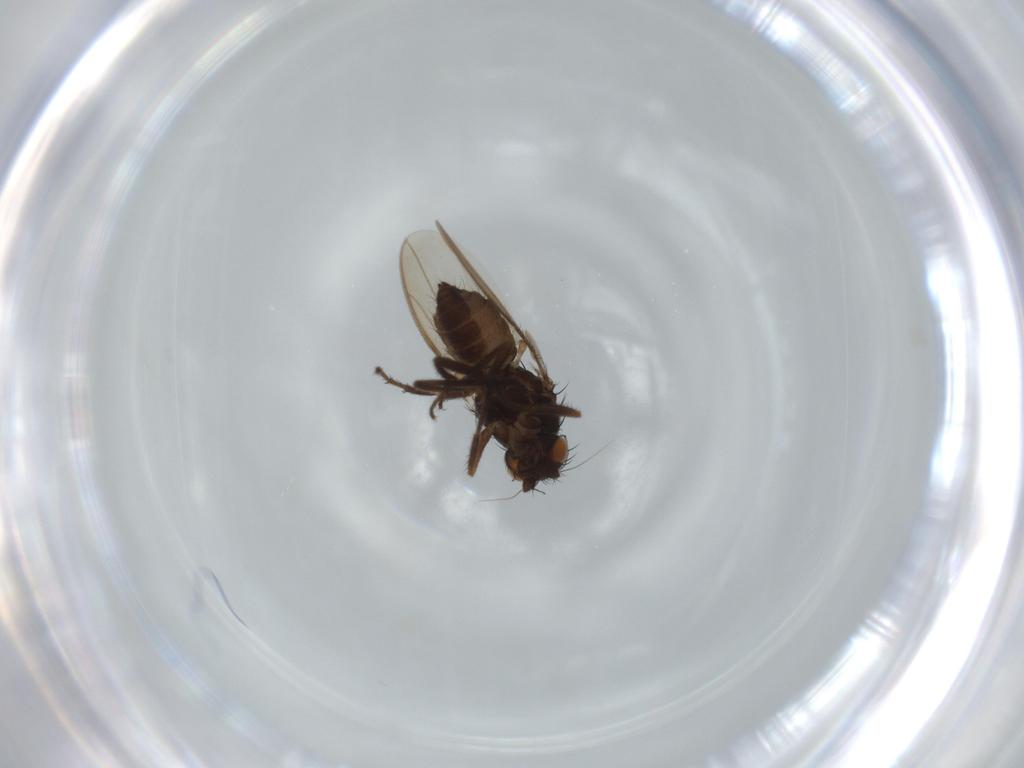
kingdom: Animalia
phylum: Arthropoda
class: Insecta
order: Diptera
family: Sphaeroceridae
